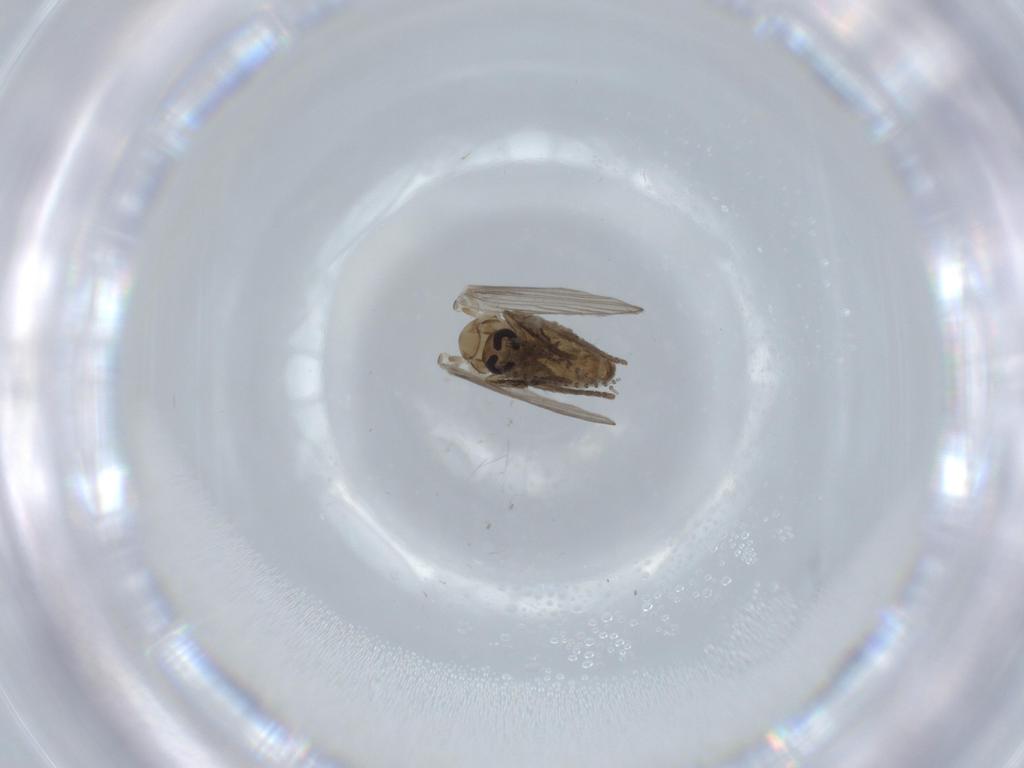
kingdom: Animalia
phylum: Arthropoda
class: Insecta
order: Diptera
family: Psychodidae
